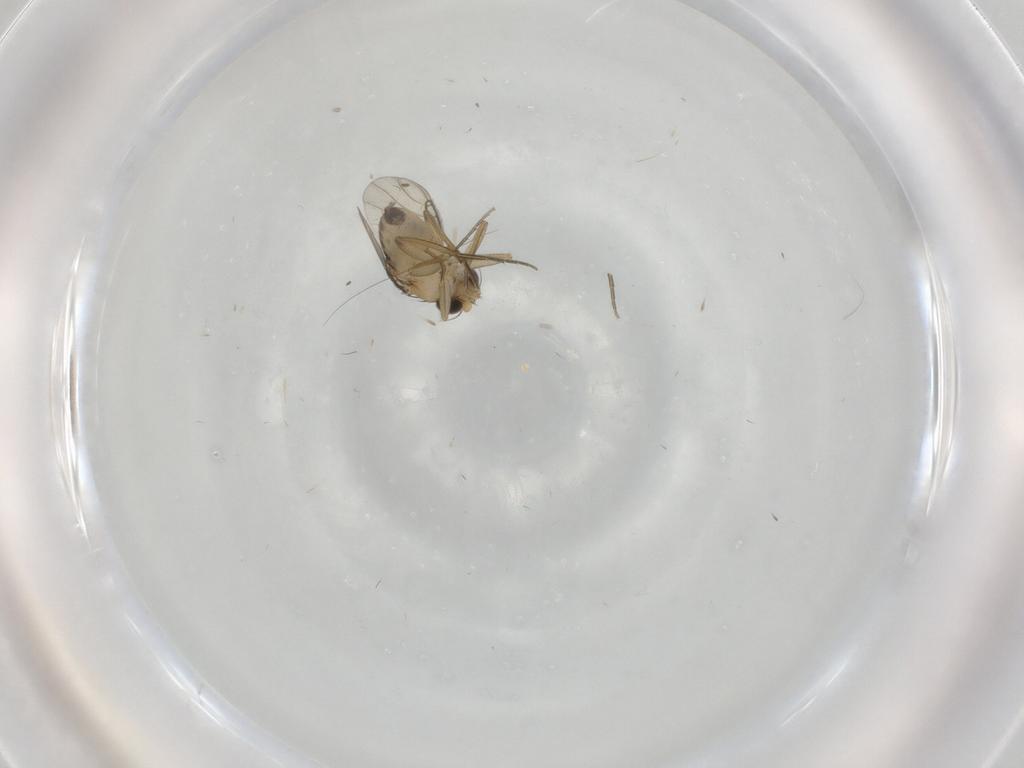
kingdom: Animalia
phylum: Arthropoda
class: Insecta
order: Diptera
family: Phoridae
